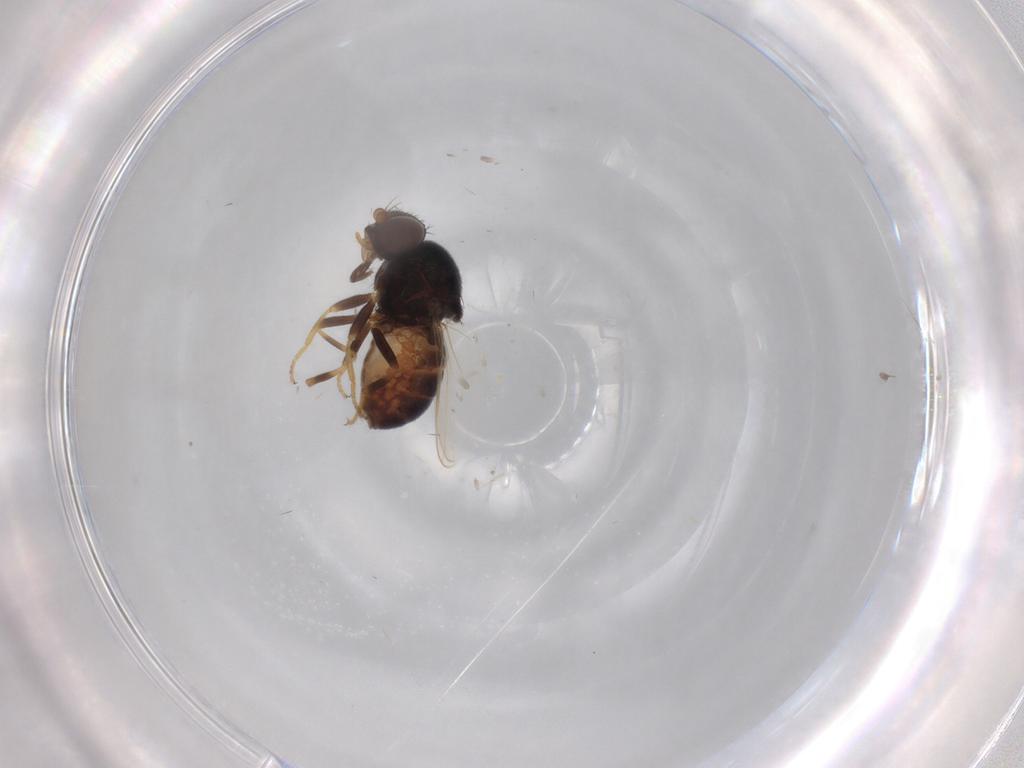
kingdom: Animalia
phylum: Arthropoda
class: Insecta
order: Diptera
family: Chloropidae
